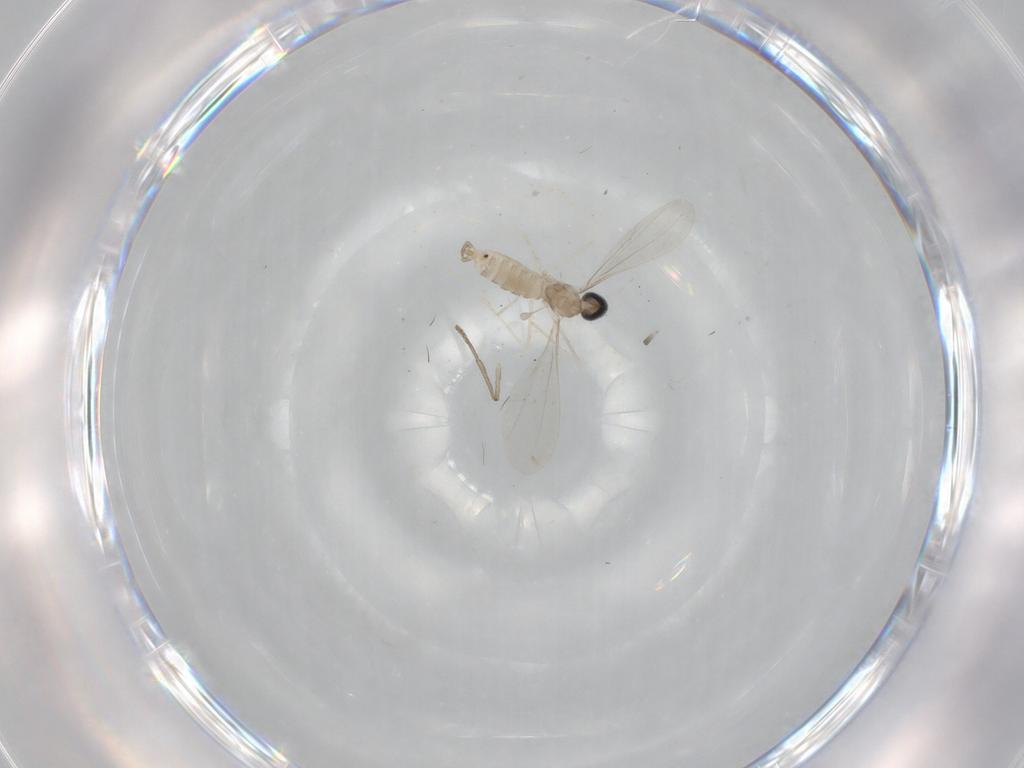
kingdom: Animalia
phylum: Arthropoda
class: Insecta
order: Diptera
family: Cecidomyiidae
